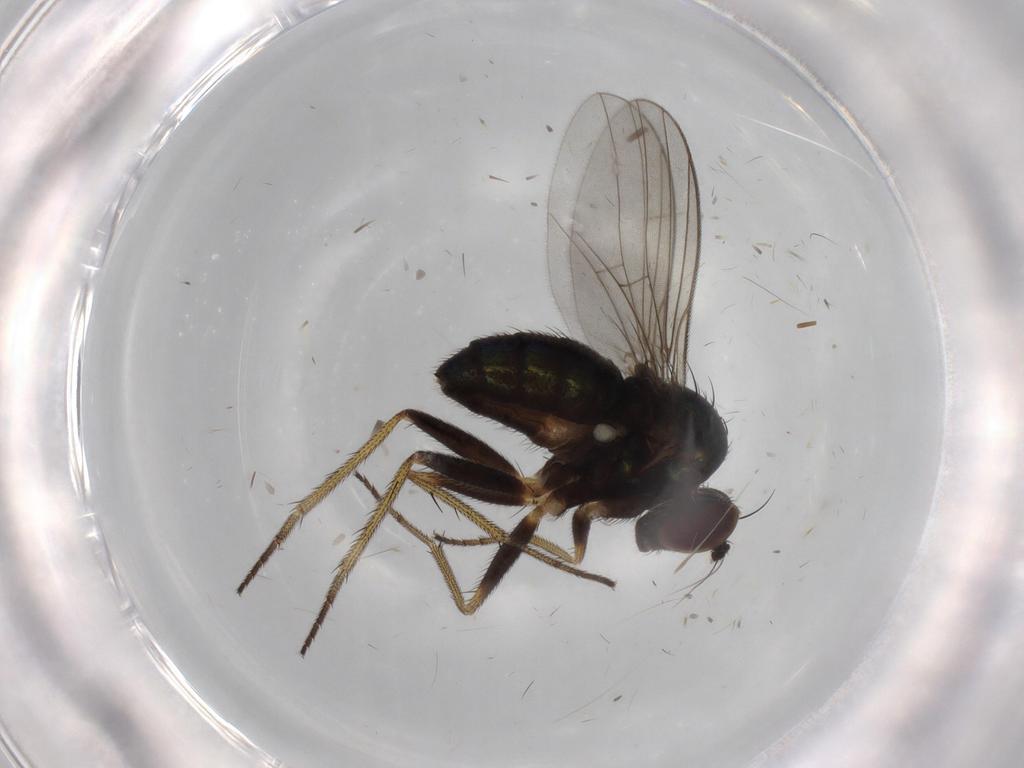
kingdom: Animalia
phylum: Arthropoda
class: Insecta
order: Diptera
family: Dolichopodidae
